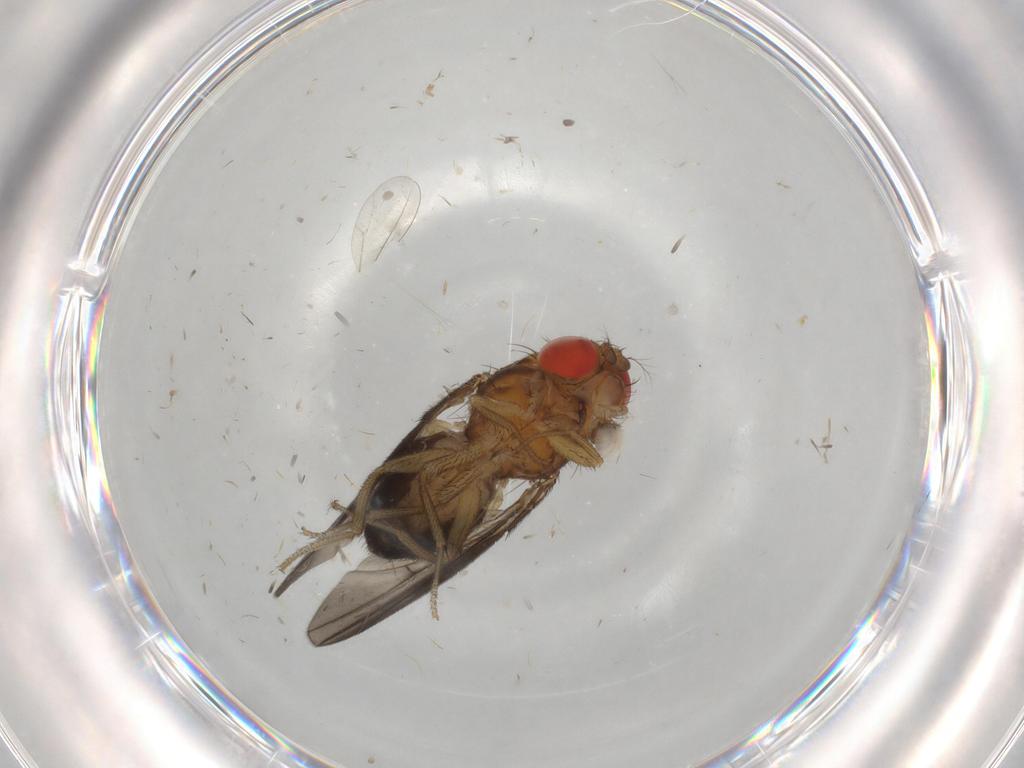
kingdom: Animalia
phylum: Arthropoda
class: Insecta
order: Diptera
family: Drosophilidae
